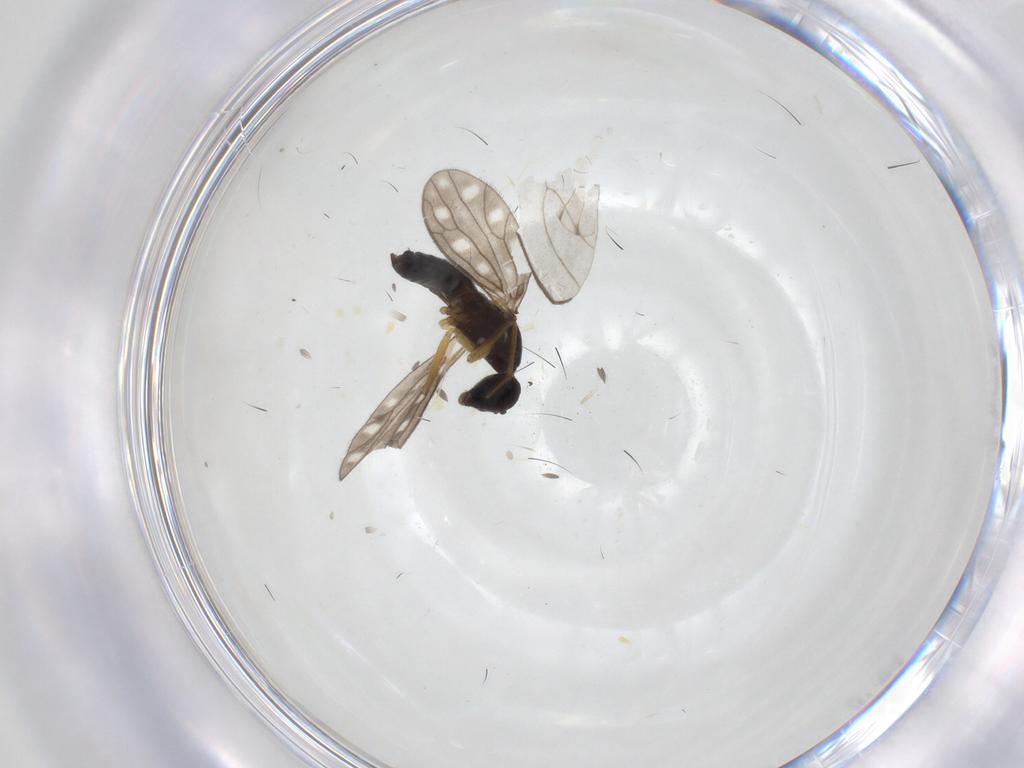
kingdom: Animalia
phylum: Arthropoda
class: Insecta
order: Diptera
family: Empididae
